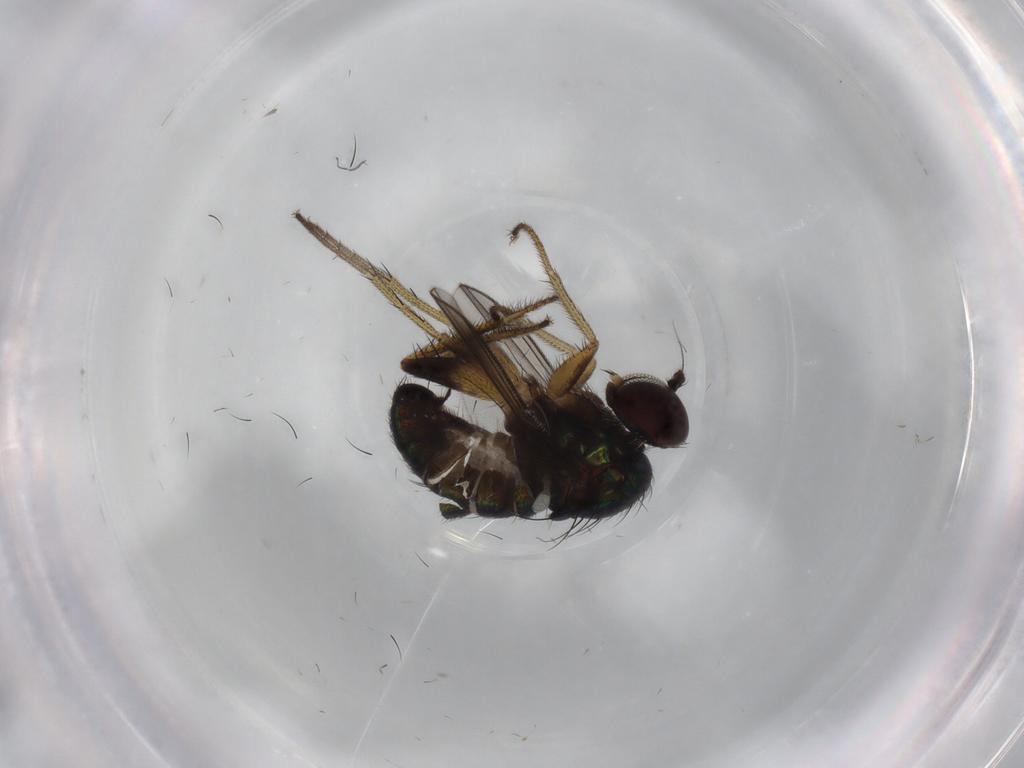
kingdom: Animalia
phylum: Arthropoda
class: Insecta
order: Diptera
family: Dolichopodidae
